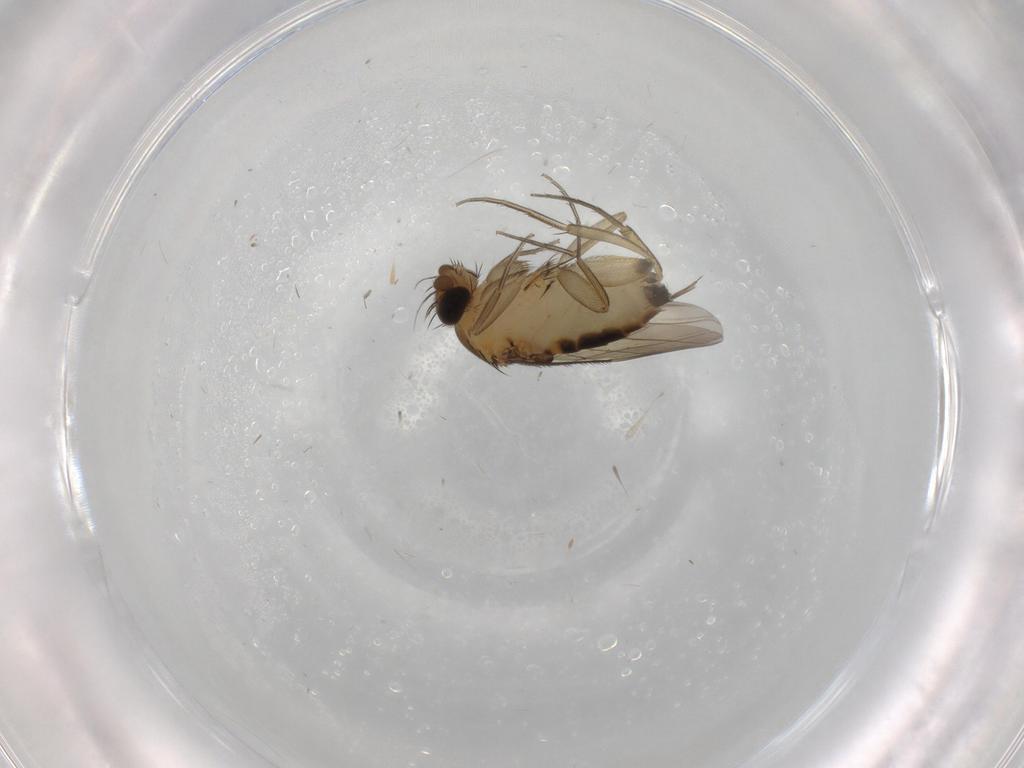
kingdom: Animalia
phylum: Arthropoda
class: Insecta
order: Diptera
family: Phoridae
